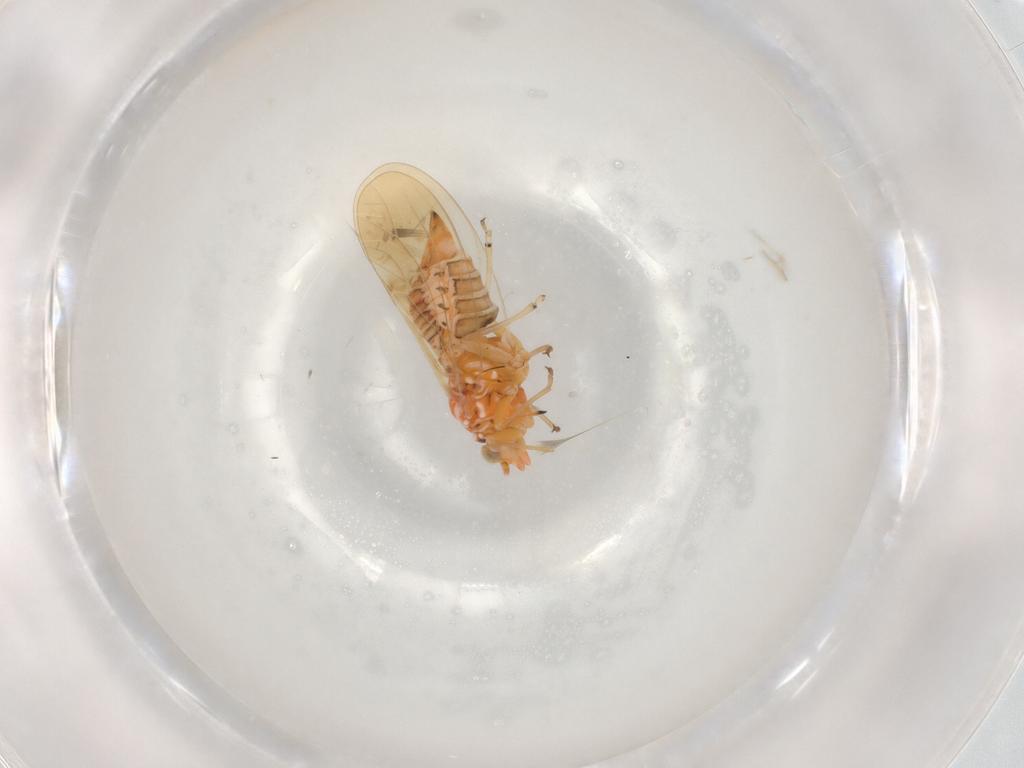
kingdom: Animalia
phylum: Arthropoda
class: Insecta
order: Hemiptera
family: Psyllidae
